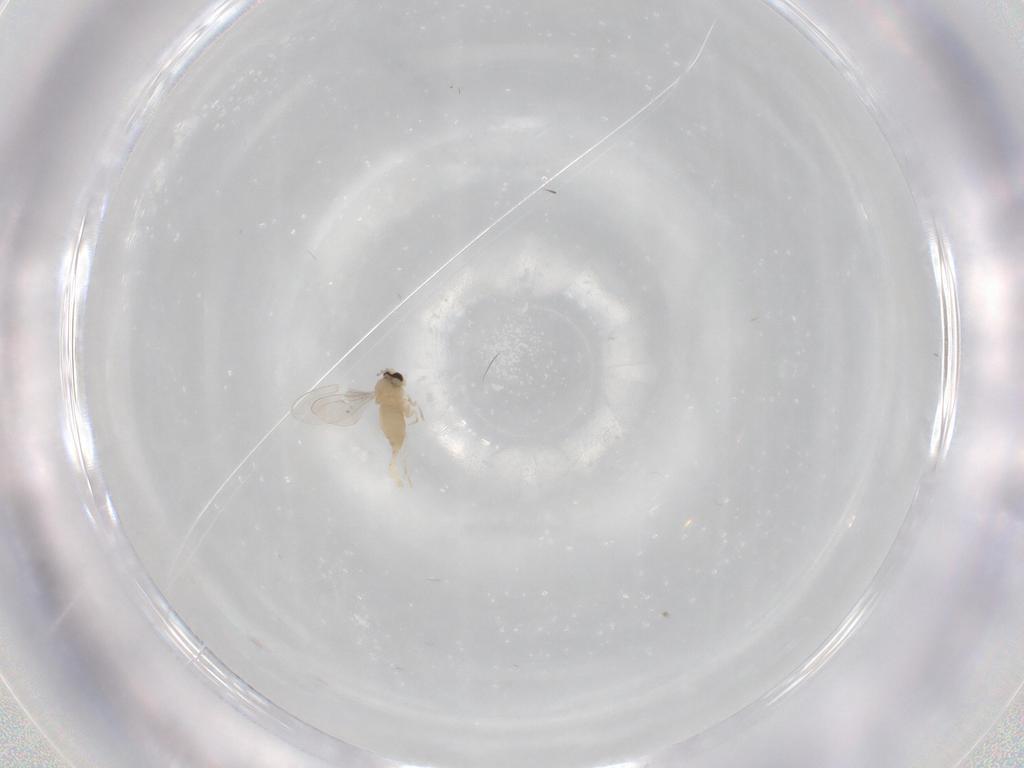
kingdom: Animalia
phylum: Arthropoda
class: Insecta
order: Diptera
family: Cecidomyiidae
